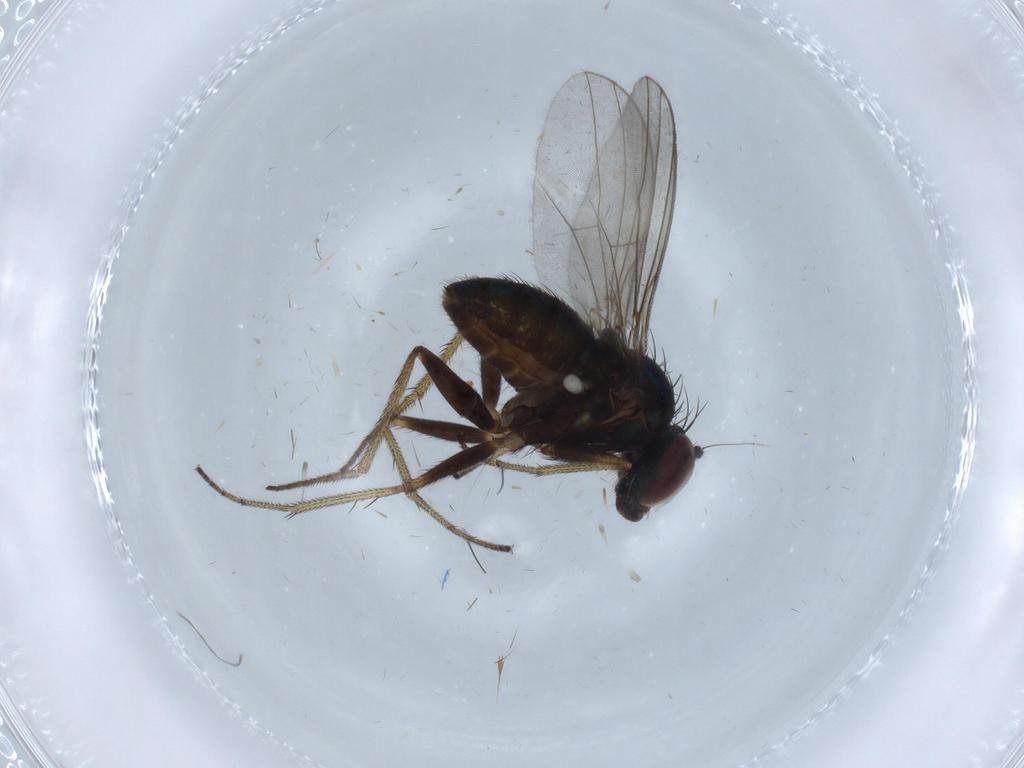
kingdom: Animalia
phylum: Arthropoda
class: Insecta
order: Diptera
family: Dolichopodidae
